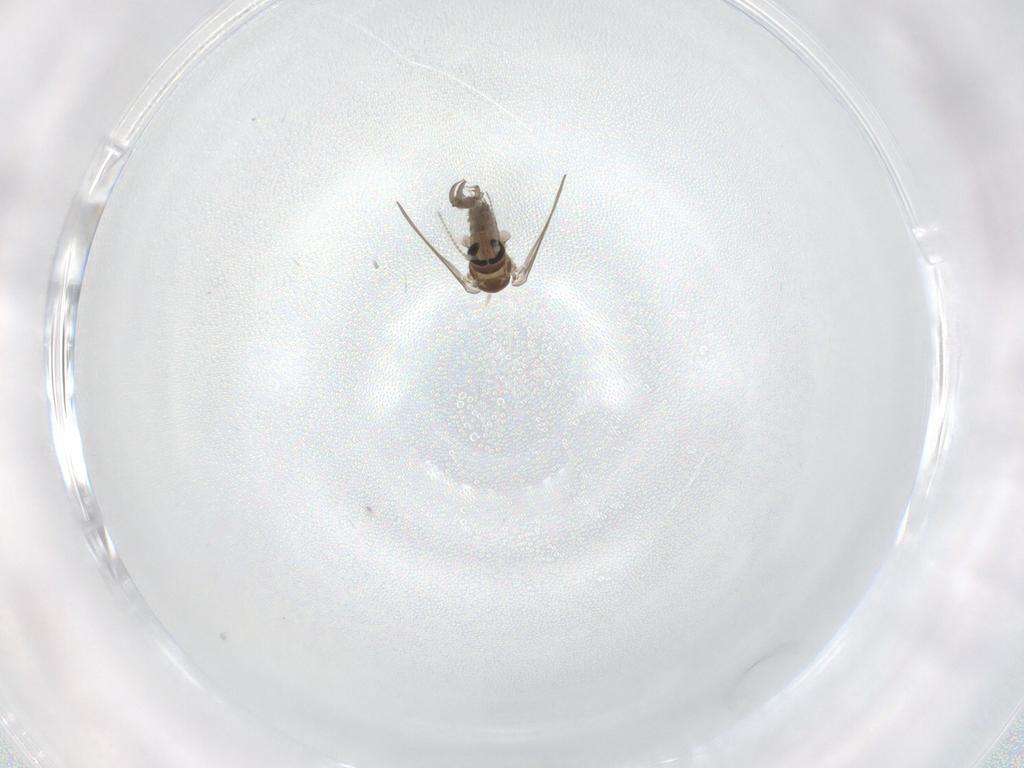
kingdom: Animalia
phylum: Arthropoda
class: Insecta
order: Diptera
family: Psychodidae
